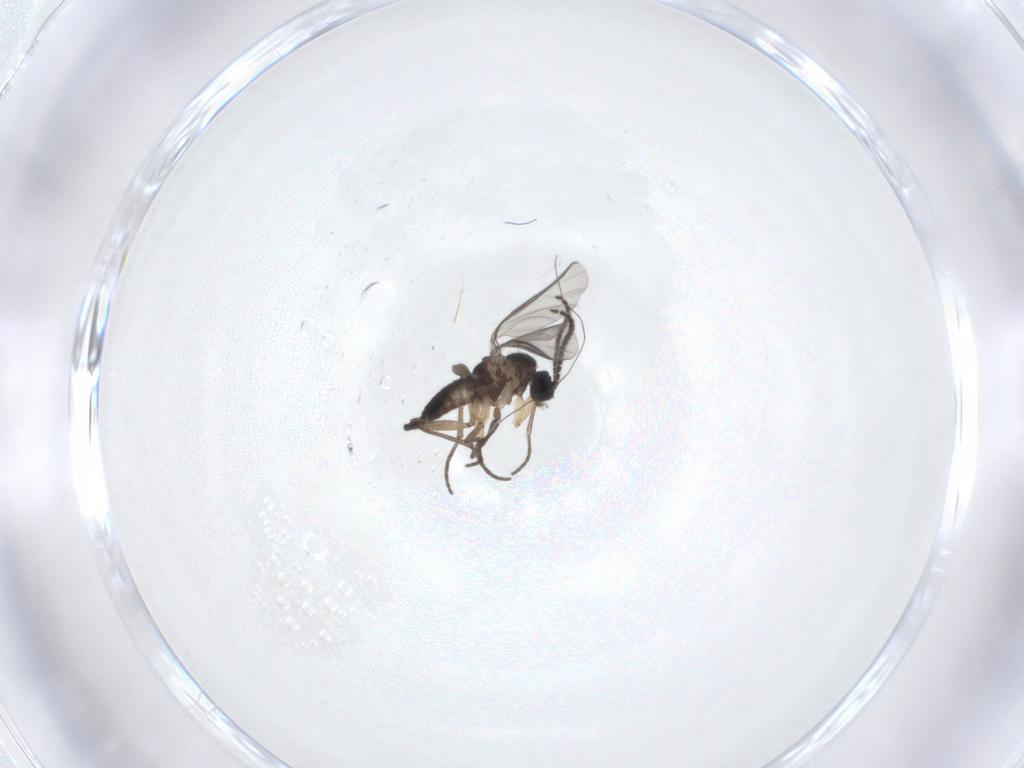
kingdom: Animalia
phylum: Arthropoda
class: Insecta
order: Diptera
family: Sciaridae
